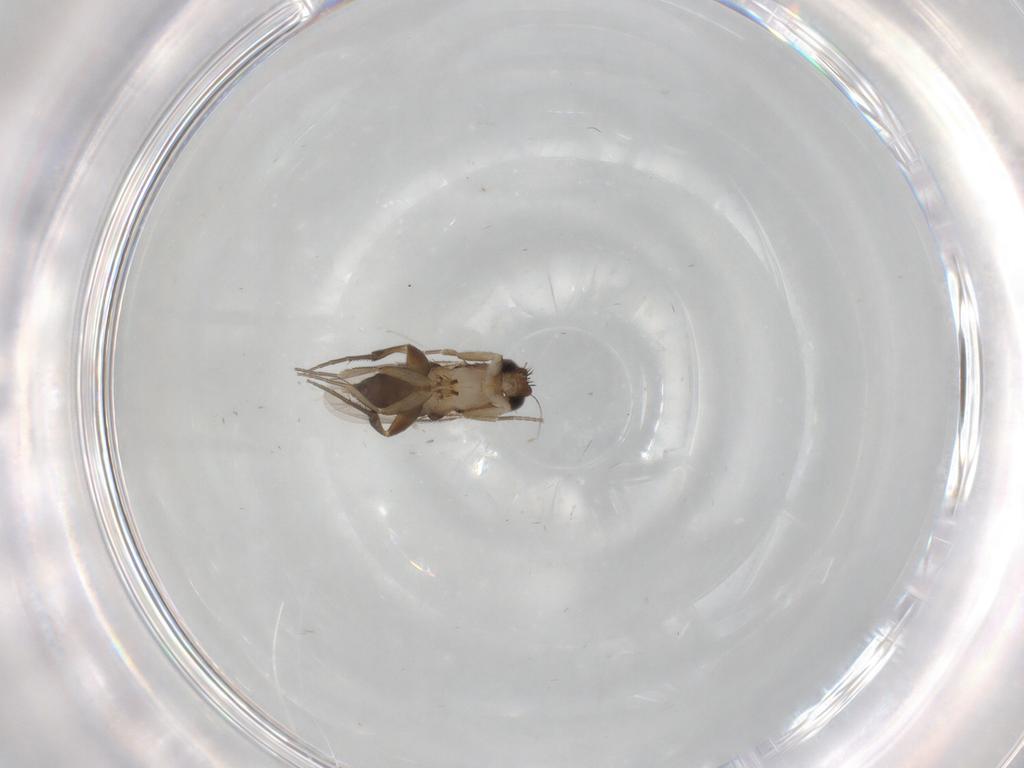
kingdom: Animalia
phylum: Arthropoda
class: Insecta
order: Diptera
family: Phoridae
